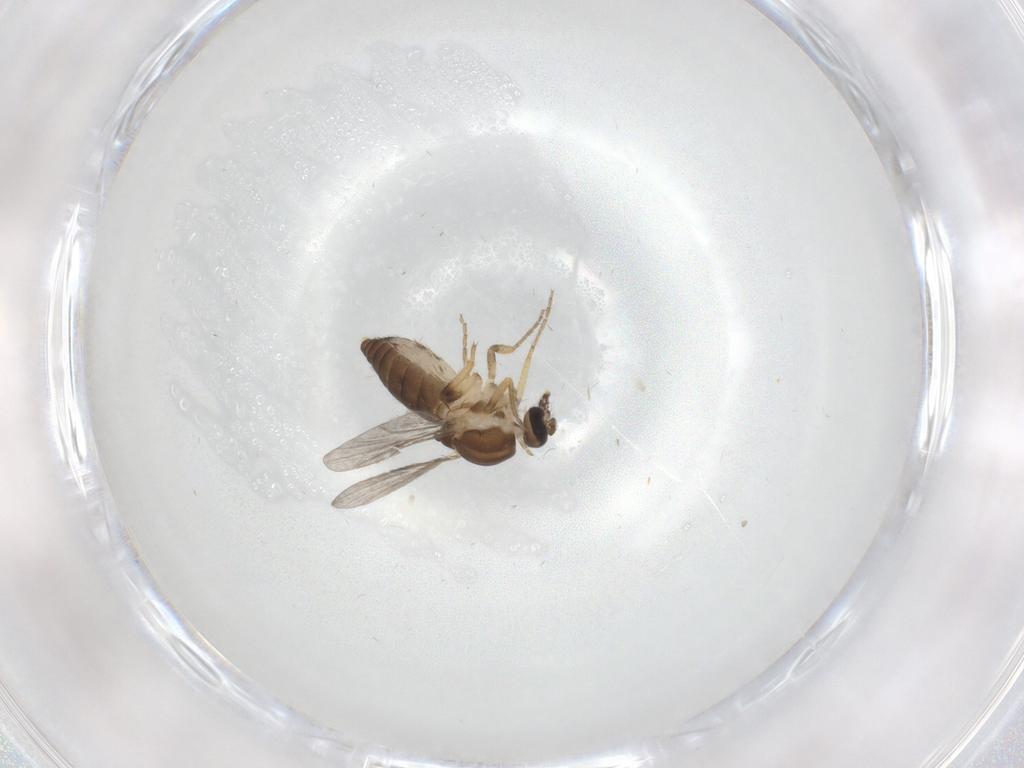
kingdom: Animalia
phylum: Arthropoda
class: Insecta
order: Diptera
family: Ceratopogonidae
